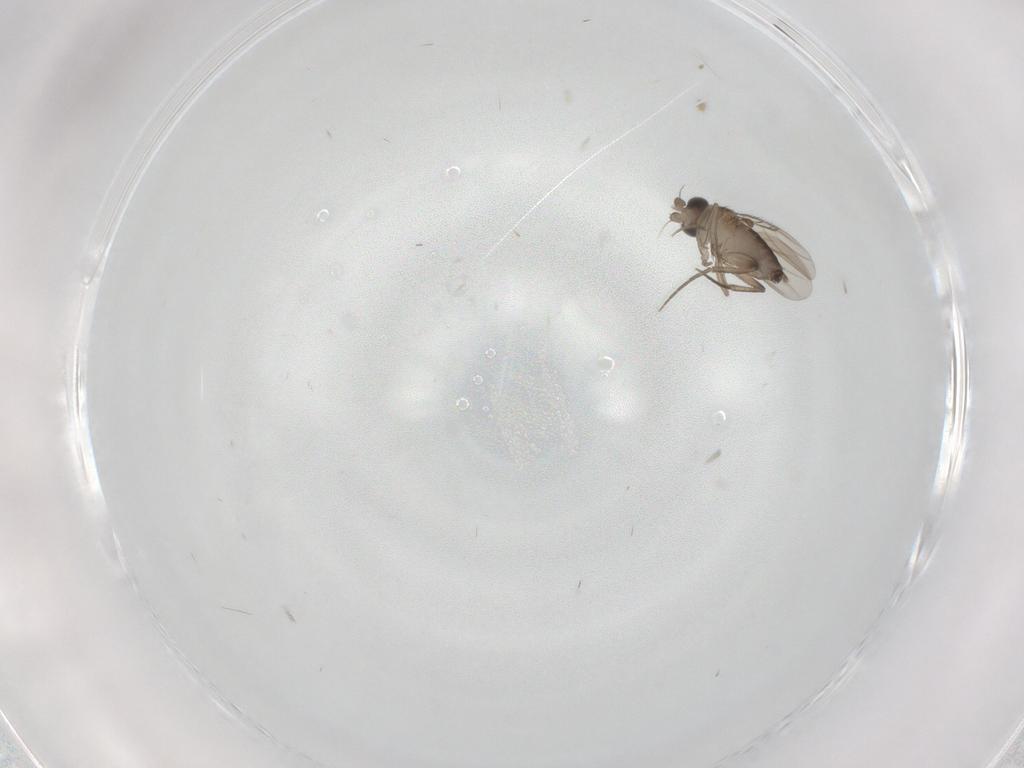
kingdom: Animalia
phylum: Arthropoda
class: Insecta
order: Diptera
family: Phoridae
